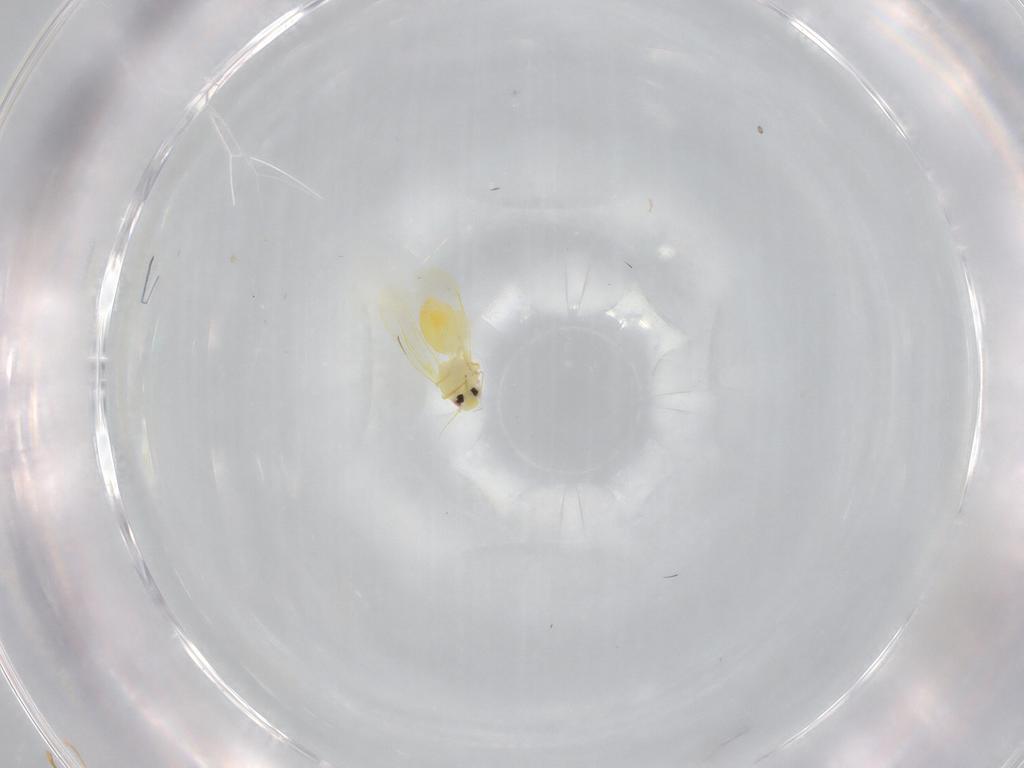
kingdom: Animalia
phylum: Arthropoda
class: Insecta
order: Hemiptera
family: Aleyrodidae
